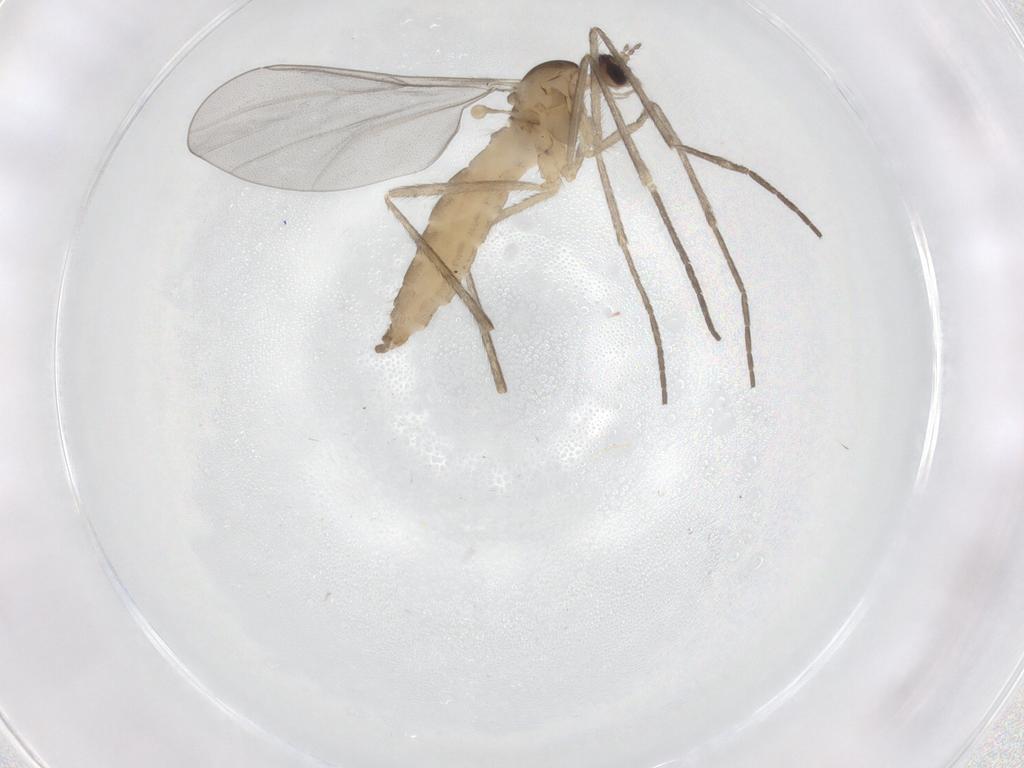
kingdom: Animalia
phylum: Arthropoda
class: Insecta
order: Diptera
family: Cecidomyiidae
